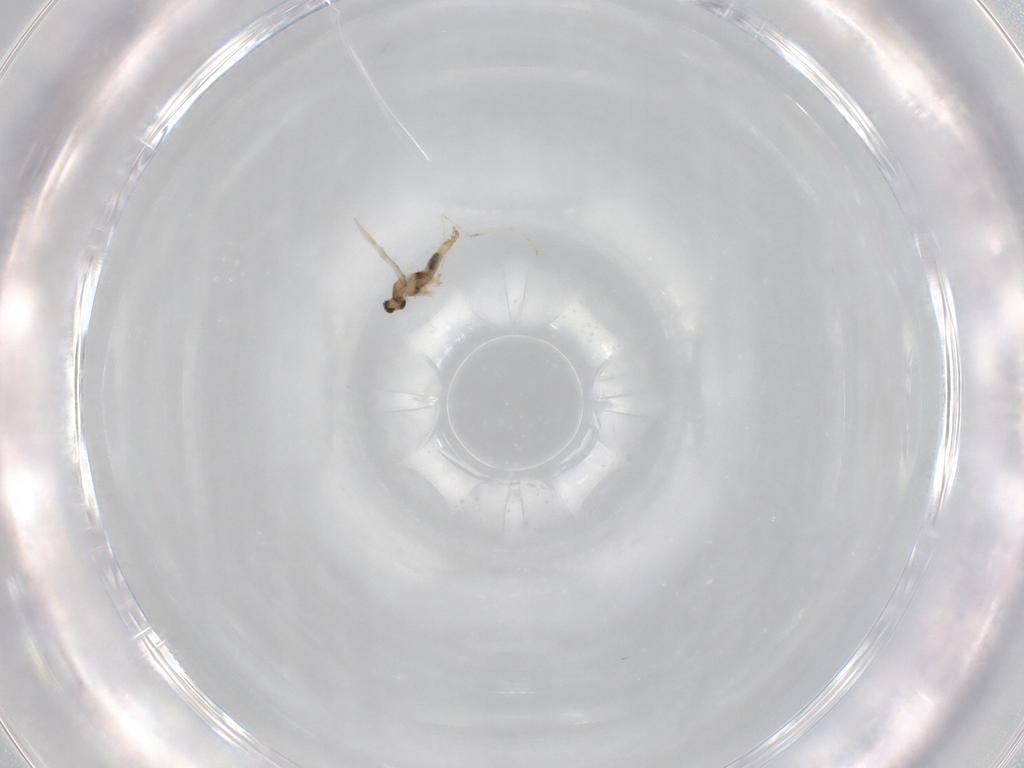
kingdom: Animalia
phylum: Arthropoda
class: Insecta
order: Diptera
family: Cecidomyiidae
